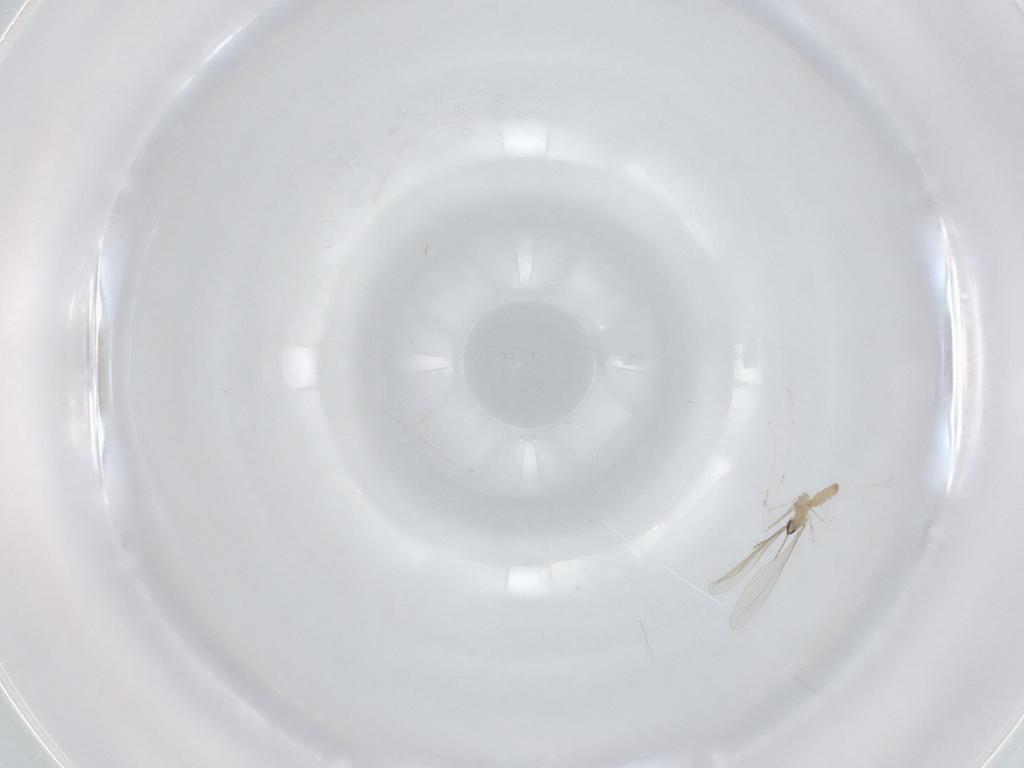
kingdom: Animalia
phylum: Arthropoda
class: Insecta
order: Diptera
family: Cecidomyiidae
